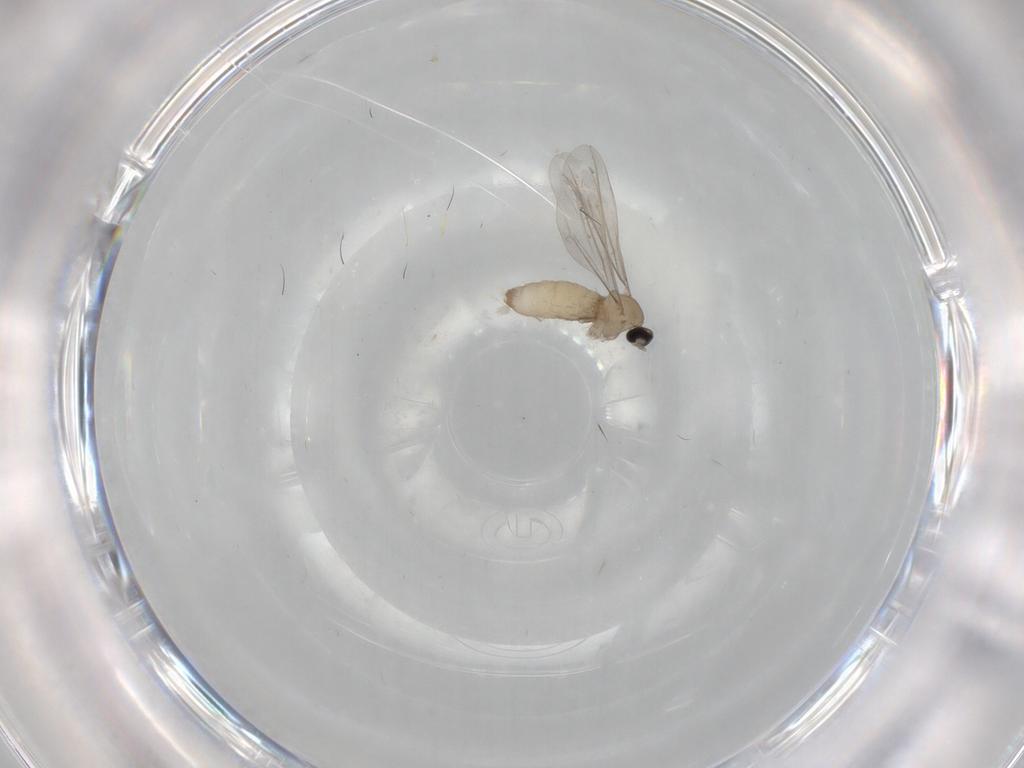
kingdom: Animalia
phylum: Arthropoda
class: Insecta
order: Diptera
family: Cecidomyiidae
